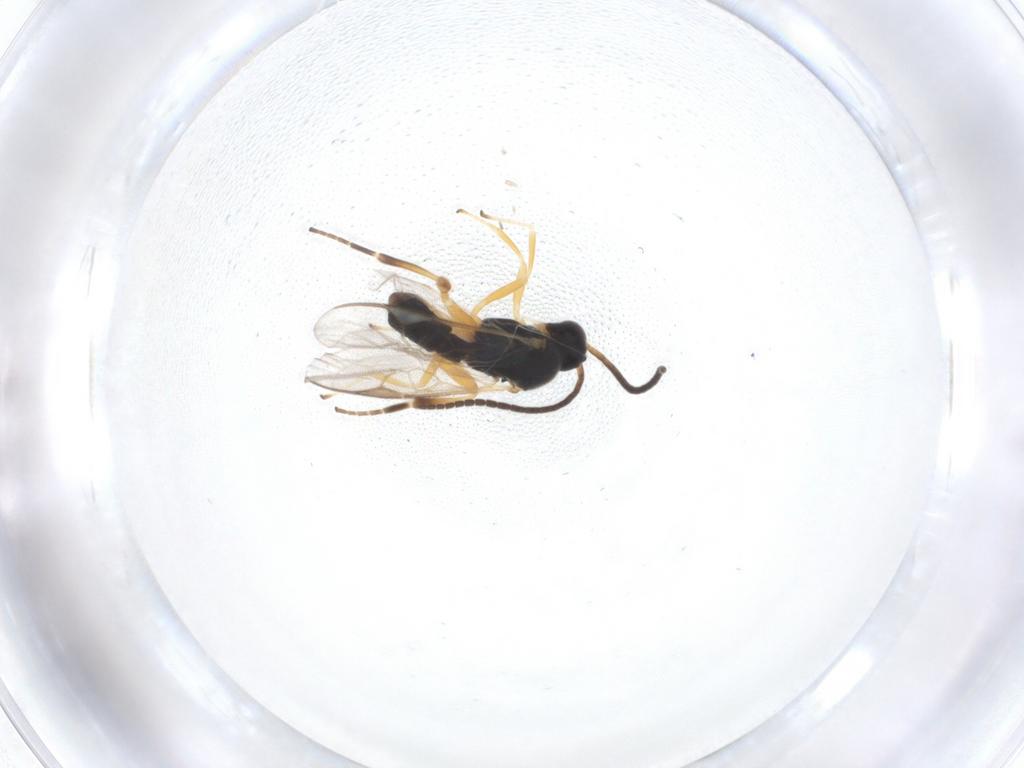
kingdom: Animalia
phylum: Arthropoda
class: Insecta
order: Hymenoptera
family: Braconidae
